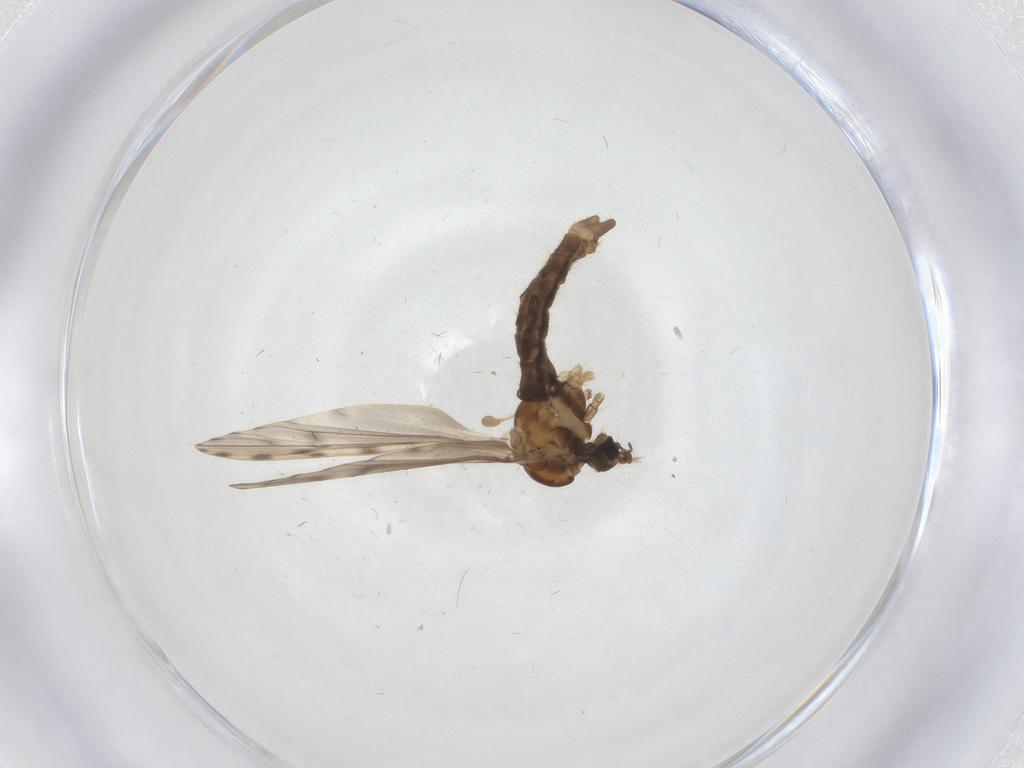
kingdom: Animalia
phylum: Arthropoda
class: Insecta
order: Diptera
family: Limoniidae
